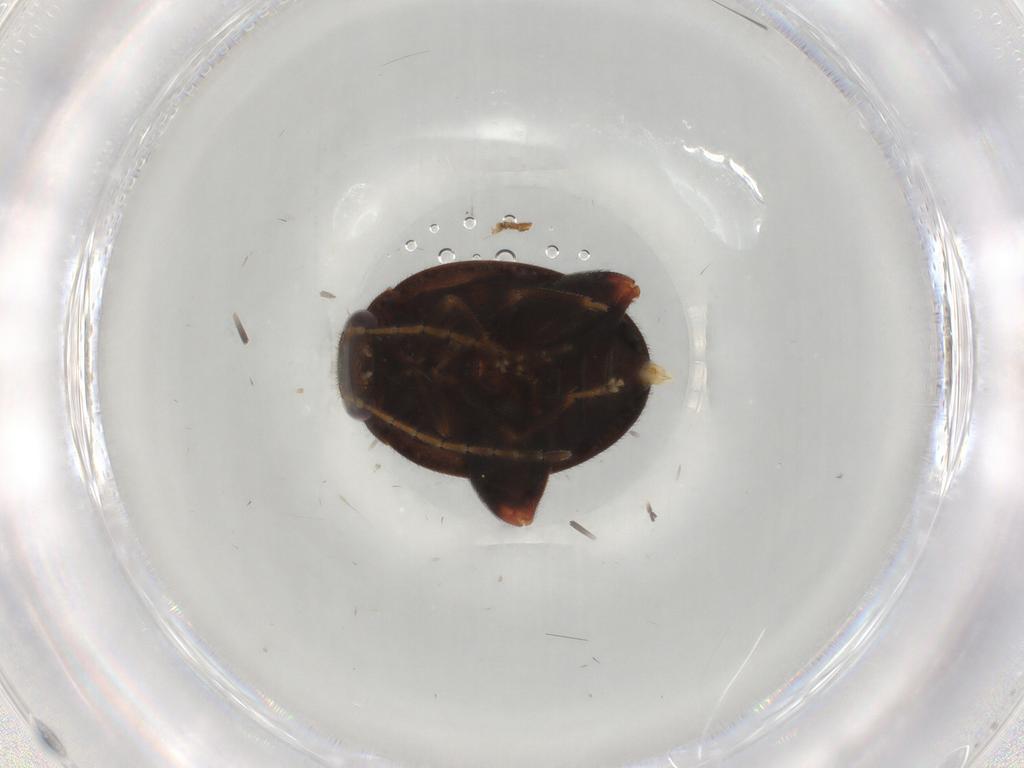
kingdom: Animalia
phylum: Arthropoda
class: Insecta
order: Coleoptera
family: Scirtidae
